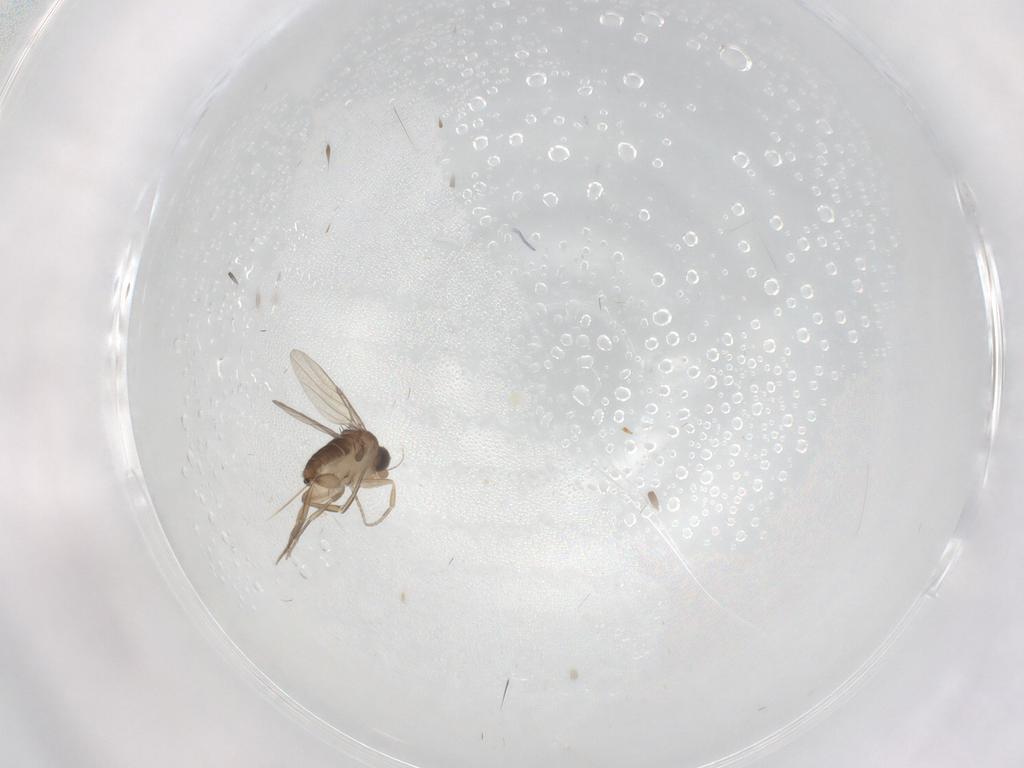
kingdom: Animalia
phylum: Arthropoda
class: Insecta
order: Diptera
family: Phoridae
